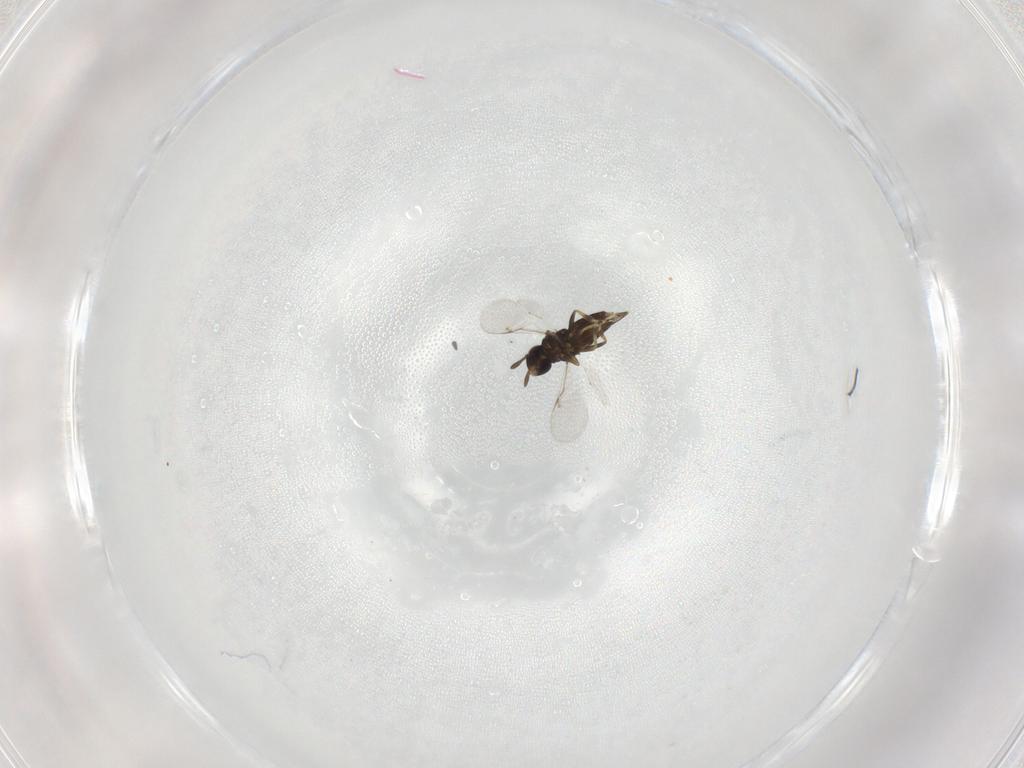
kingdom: Animalia
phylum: Arthropoda
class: Insecta
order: Hymenoptera
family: Encyrtidae
